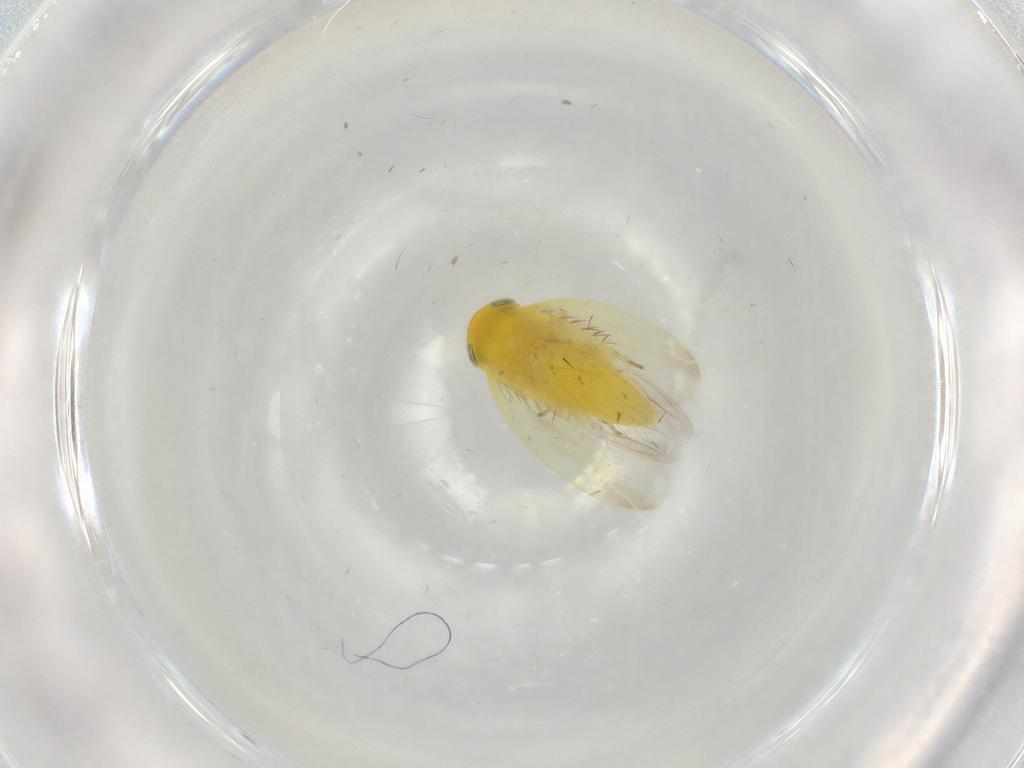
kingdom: Animalia
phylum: Arthropoda
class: Insecta
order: Hemiptera
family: Cicadellidae
